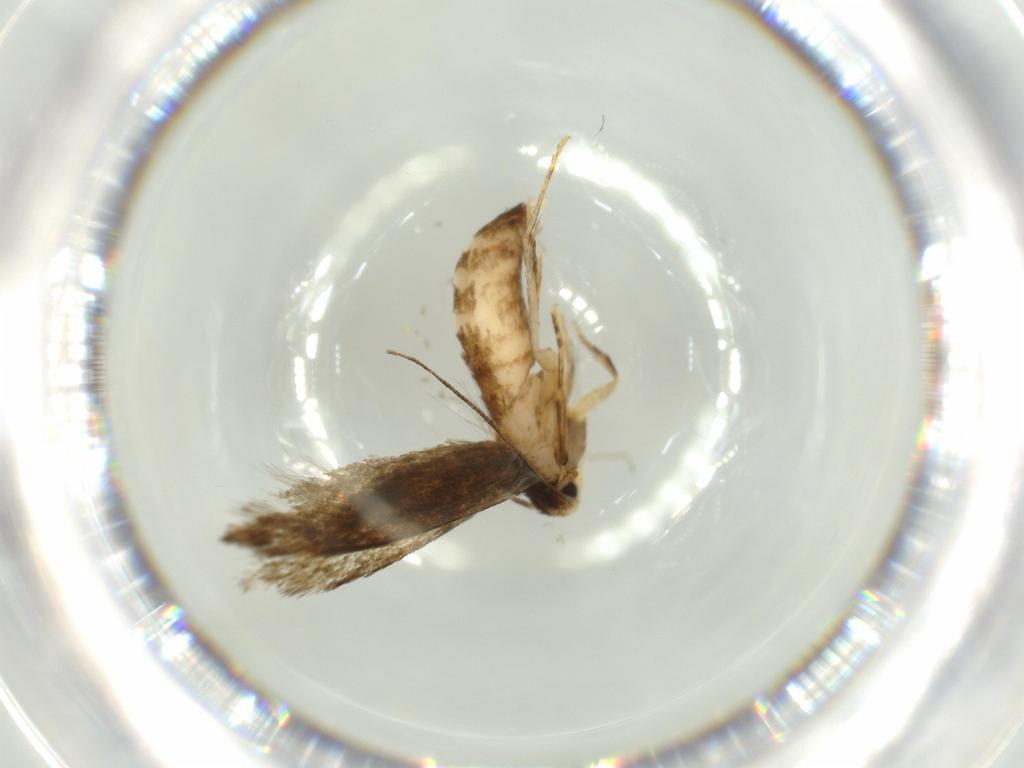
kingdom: Animalia
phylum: Arthropoda
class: Insecta
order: Lepidoptera
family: Tineidae
